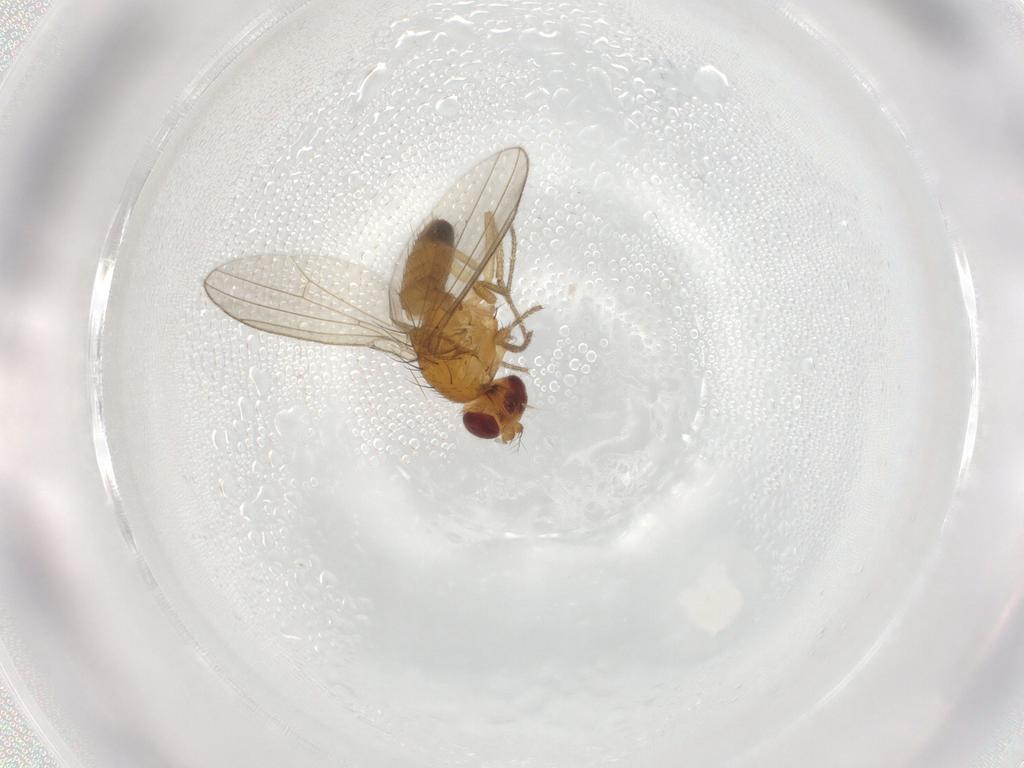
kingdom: Animalia
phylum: Arthropoda
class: Insecta
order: Diptera
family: Drosophilidae
